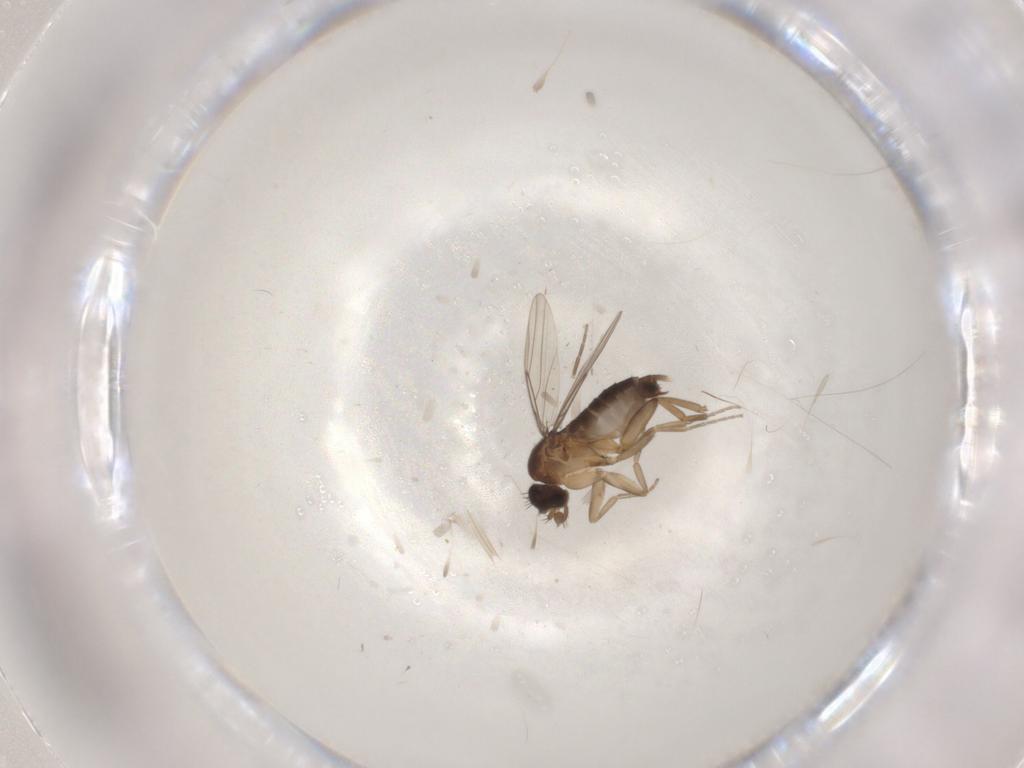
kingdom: Animalia
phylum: Arthropoda
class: Insecta
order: Diptera
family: Phoridae
